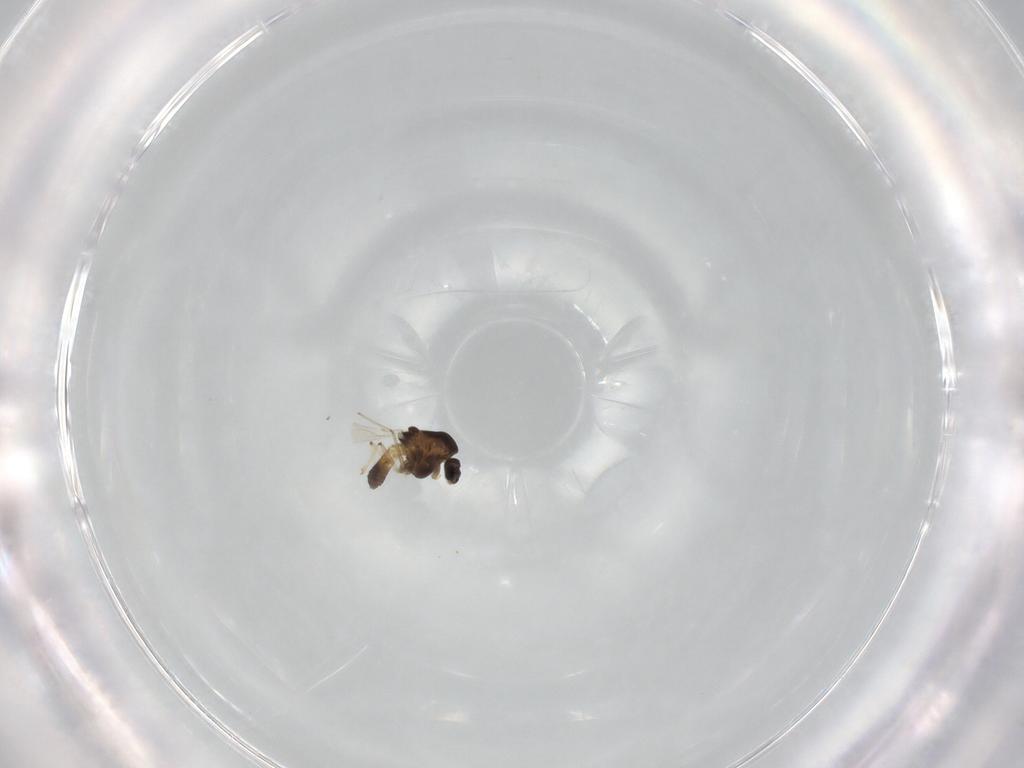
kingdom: Animalia
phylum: Arthropoda
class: Insecta
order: Diptera
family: Chironomidae
